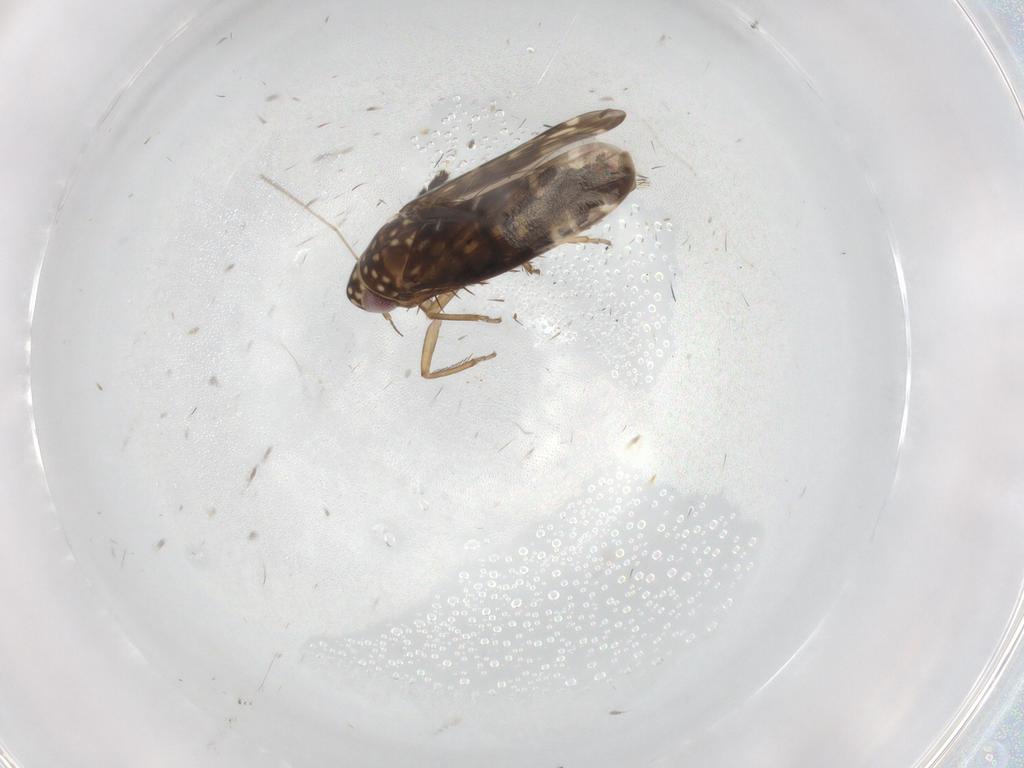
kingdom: Animalia
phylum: Arthropoda
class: Insecta
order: Hemiptera
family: Cicadellidae
